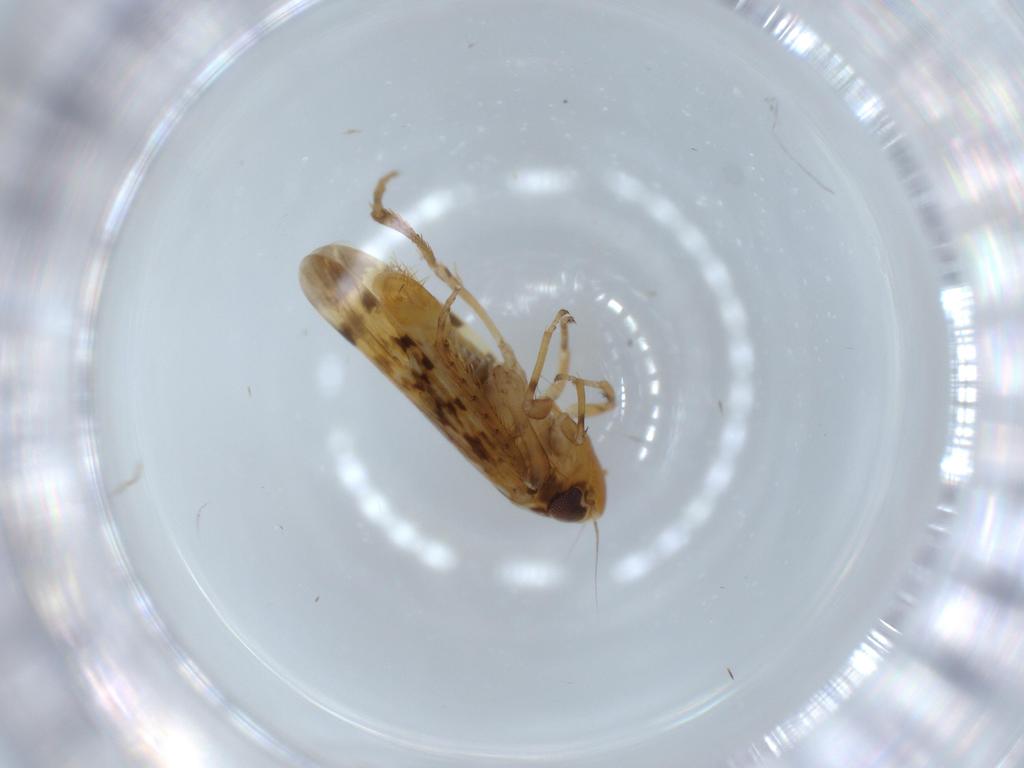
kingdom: Animalia
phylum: Arthropoda
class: Insecta
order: Hemiptera
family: Cicadellidae
